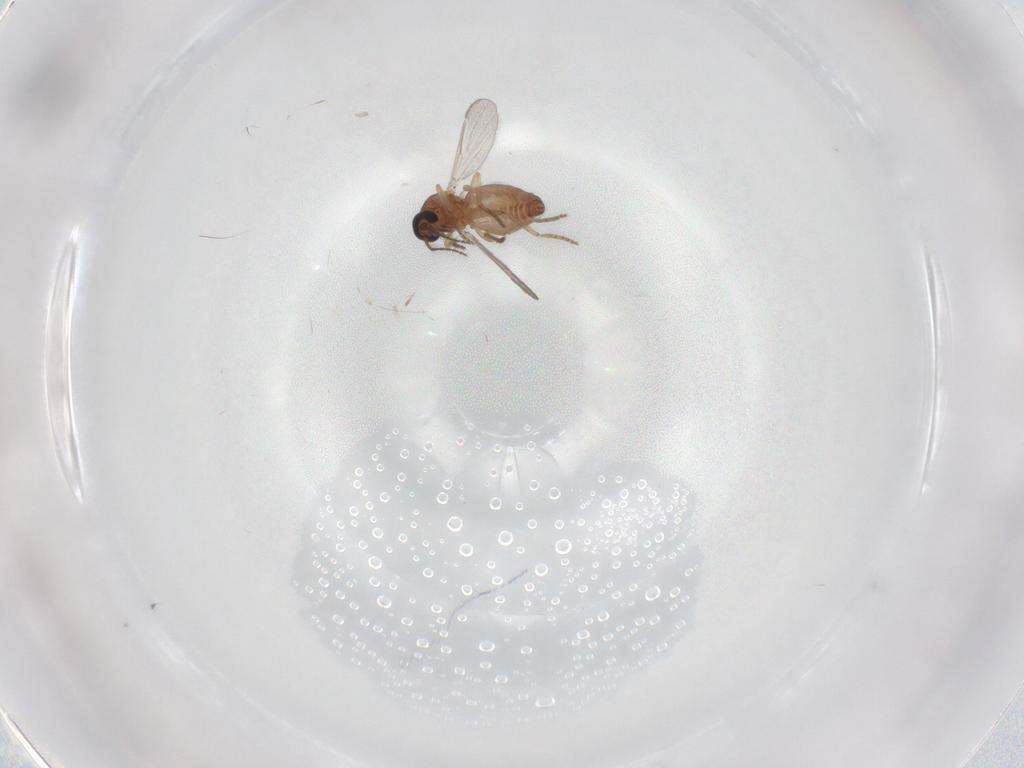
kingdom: Animalia
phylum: Arthropoda
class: Insecta
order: Diptera
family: Ceratopogonidae
